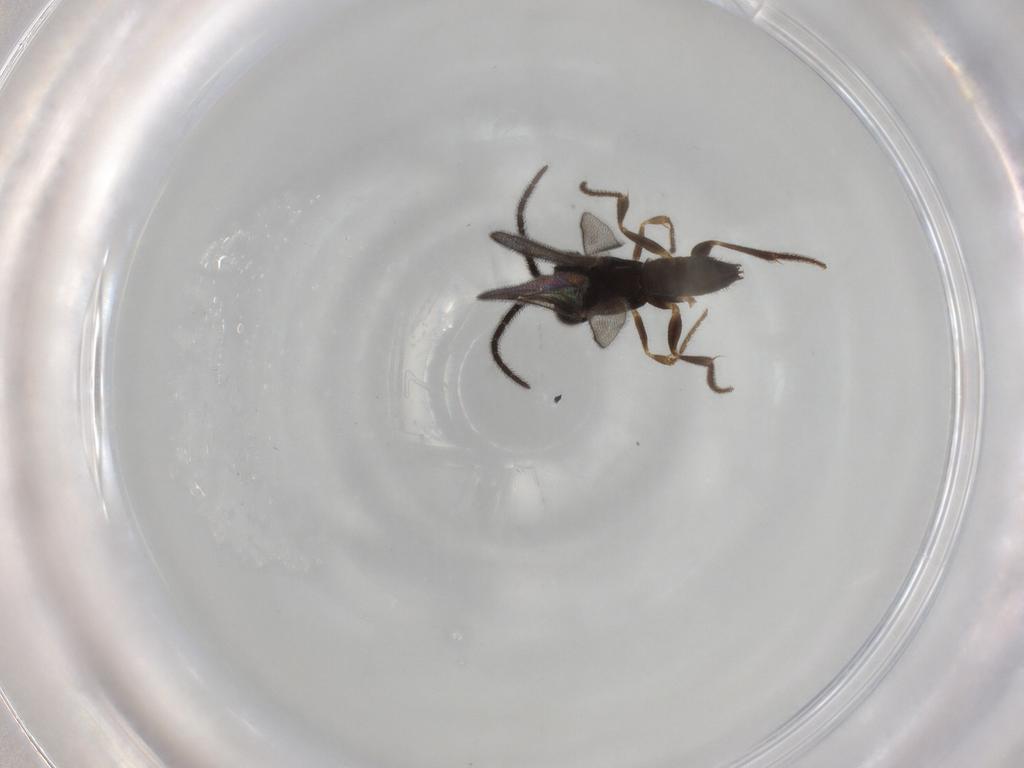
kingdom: Animalia
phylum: Arthropoda
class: Insecta
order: Hymenoptera
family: Dryinidae
